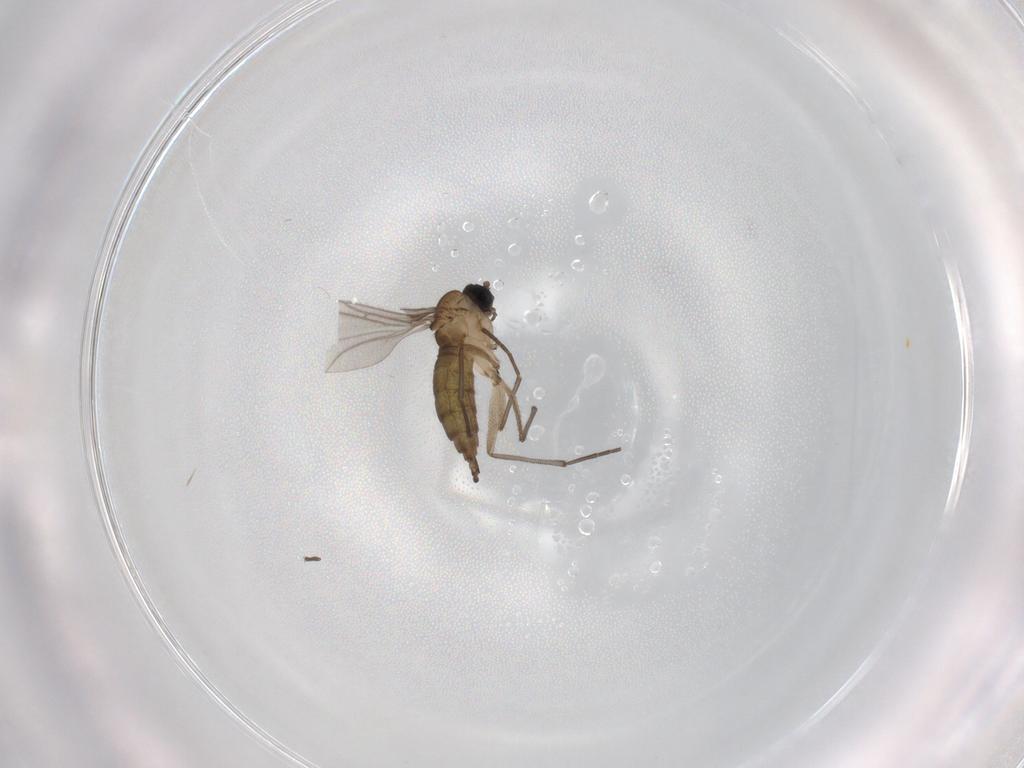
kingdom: Animalia
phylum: Arthropoda
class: Insecta
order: Diptera
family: Sciaridae
